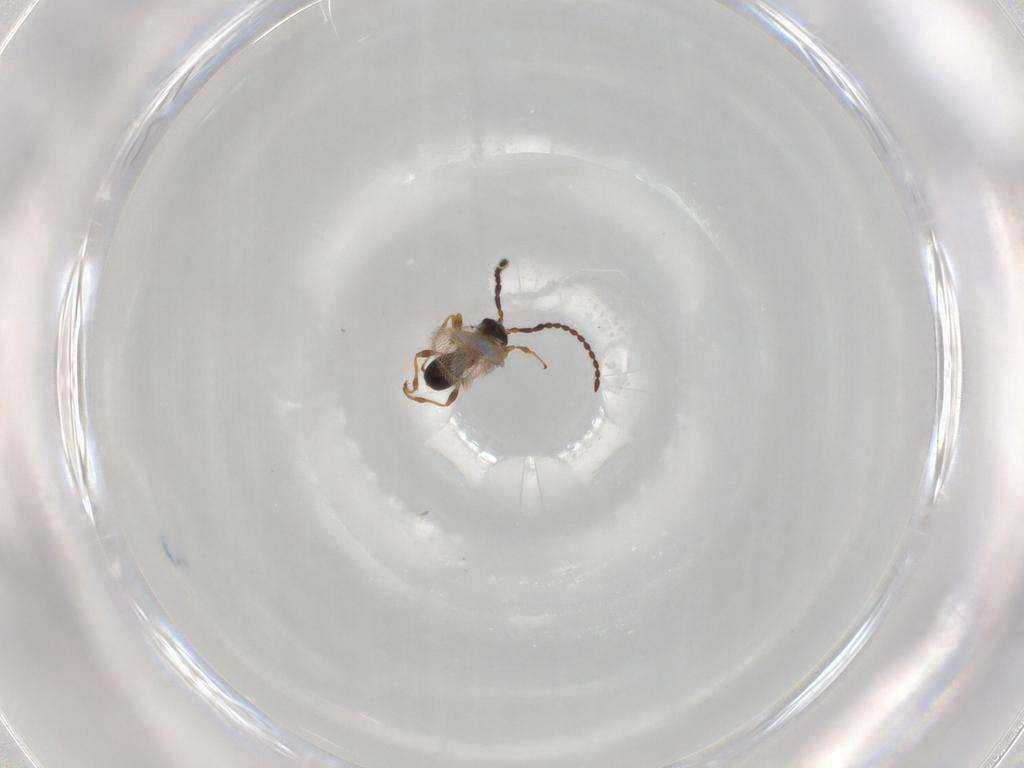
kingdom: Animalia
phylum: Arthropoda
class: Insecta
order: Hymenoptera
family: Diapriidae
